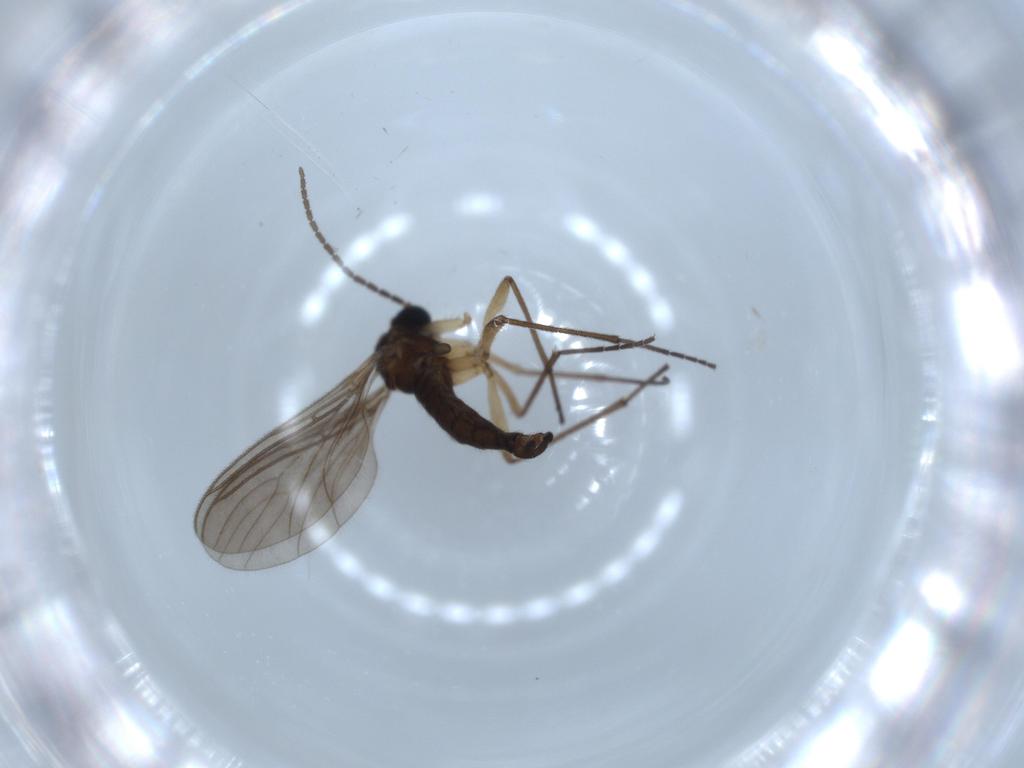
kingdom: Animalia
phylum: Arthropoda
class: Insecta
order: Diptera
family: Sciaridae
